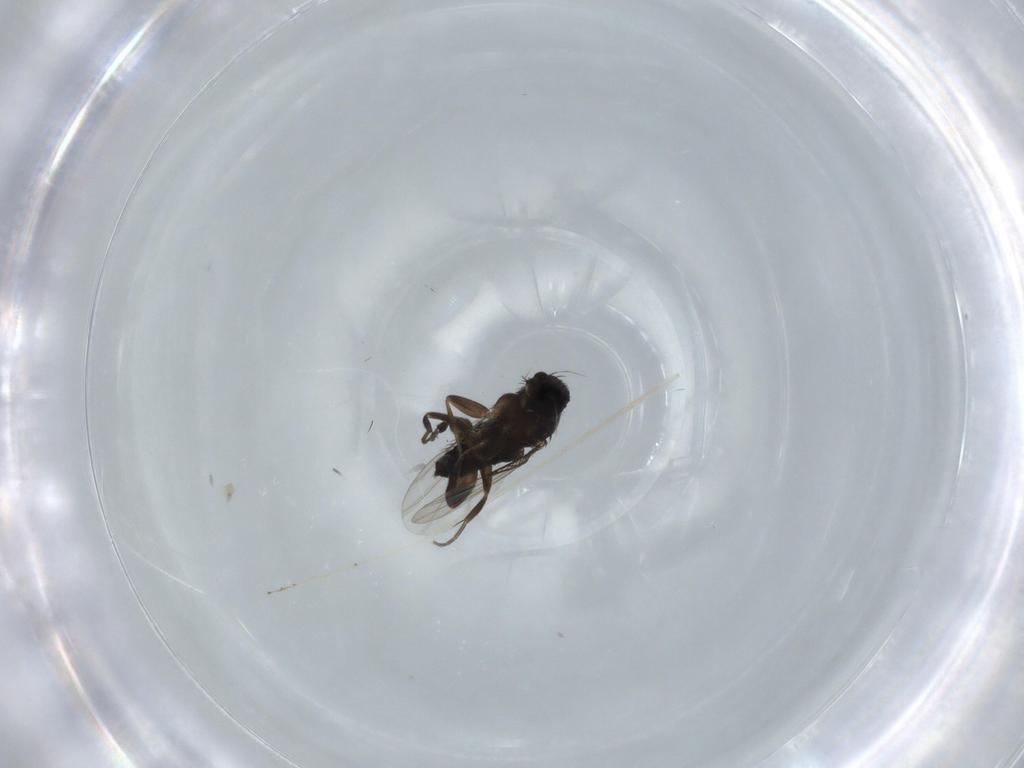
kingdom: Animalia
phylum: Arthropoda
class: Insecta
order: Diptera
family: Phoridae
